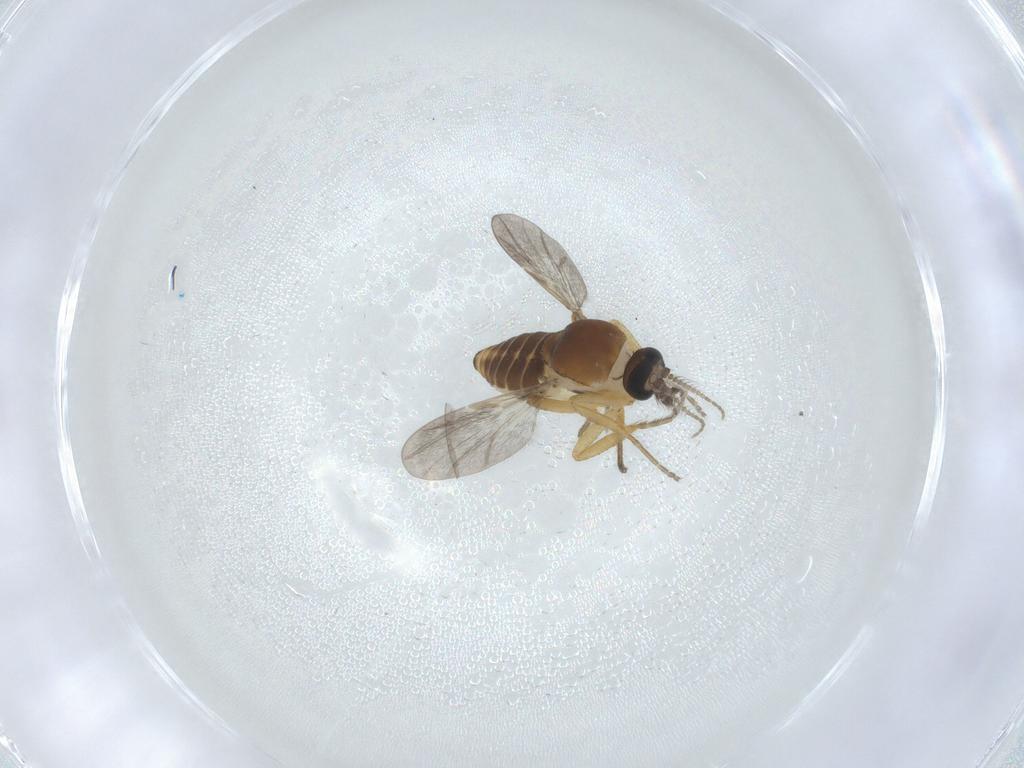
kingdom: Animalia
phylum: Arthropoda
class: Insecta
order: Diptera
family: Ceratopogonidae
